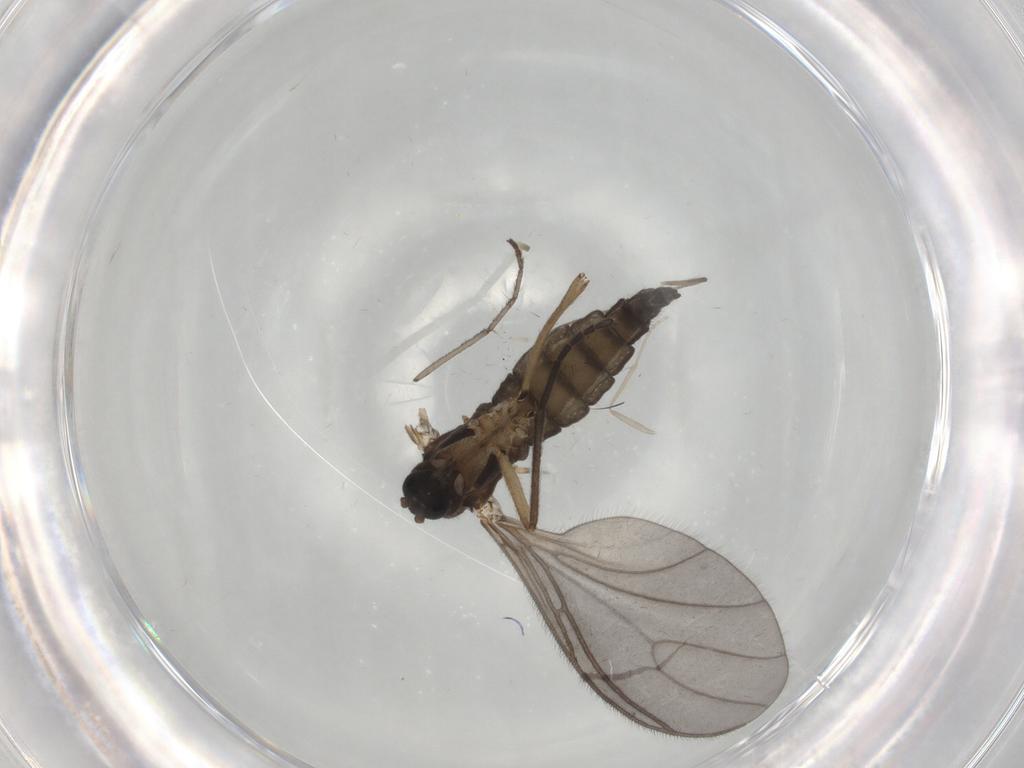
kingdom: Animalia
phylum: Arthropoda
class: Insecta
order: Diptera
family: Sciaridae
